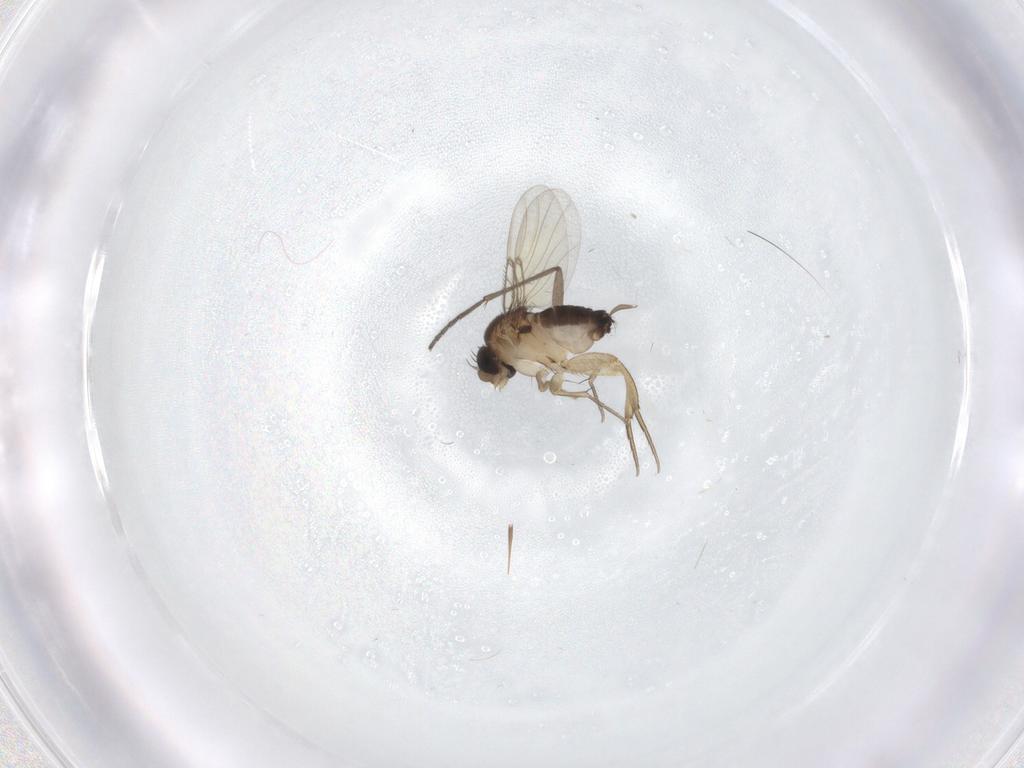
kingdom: Animalia
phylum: Arthropoda
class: Insecta
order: Diptera
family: Sciaridae
